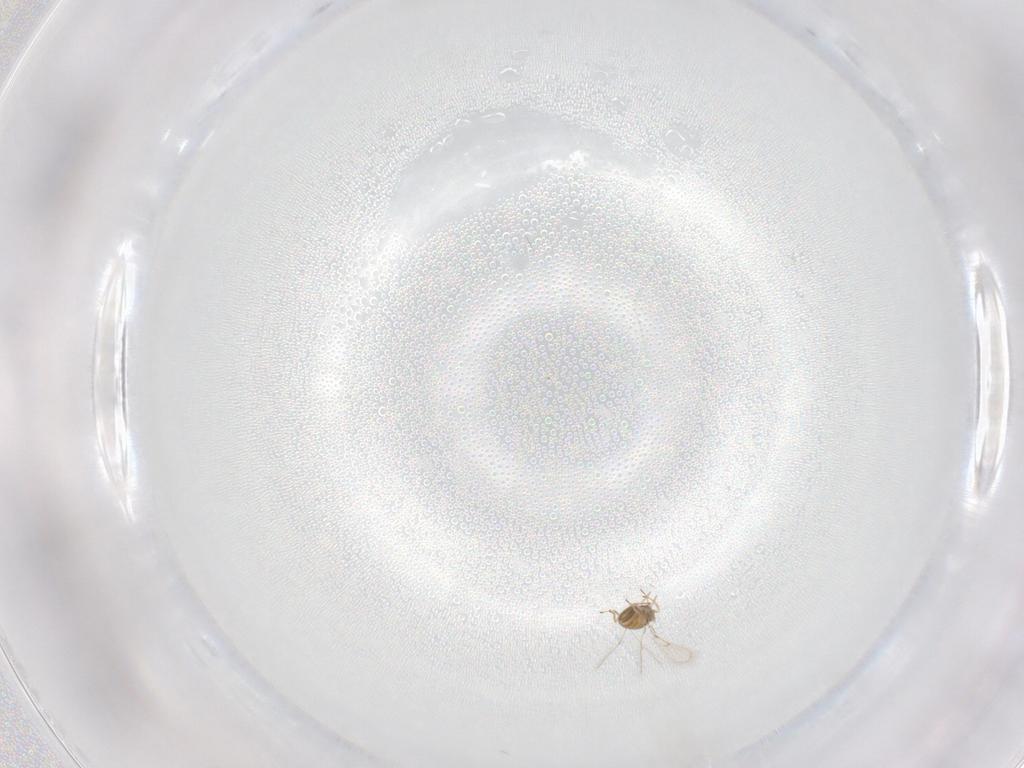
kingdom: Animalia
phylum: Arthropoda
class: Insecta
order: Hymenoptera
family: Trichogrammatidae
